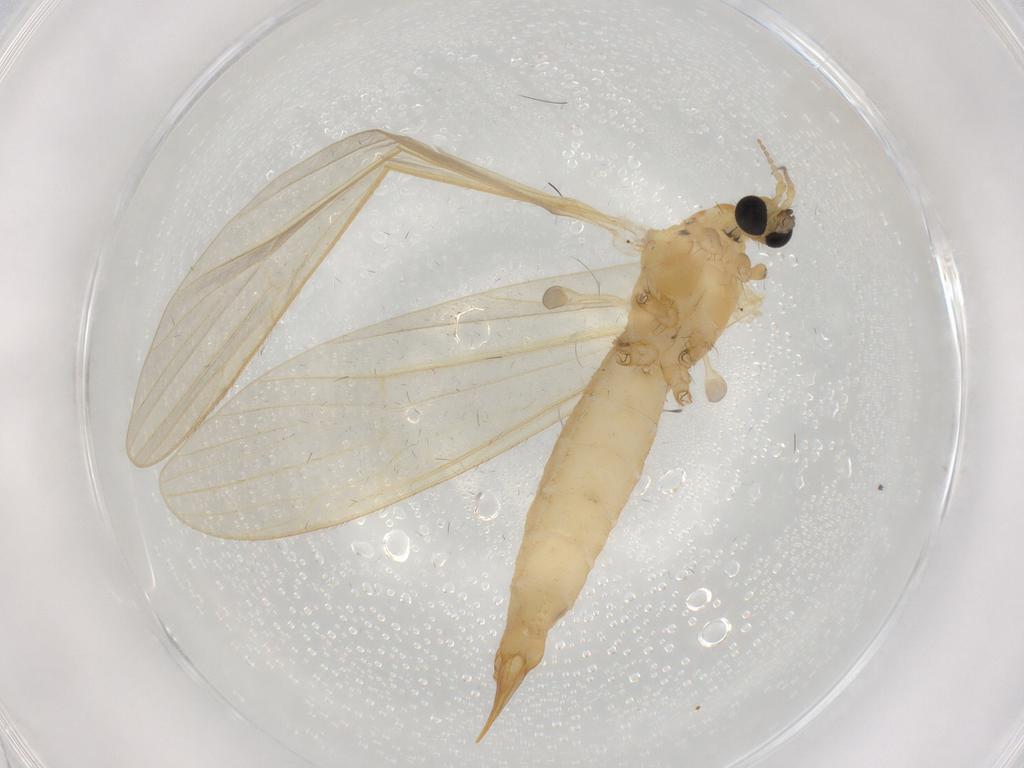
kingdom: Animalia
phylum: Arthropoda
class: Insecta
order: Diptera
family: Limoniidae
